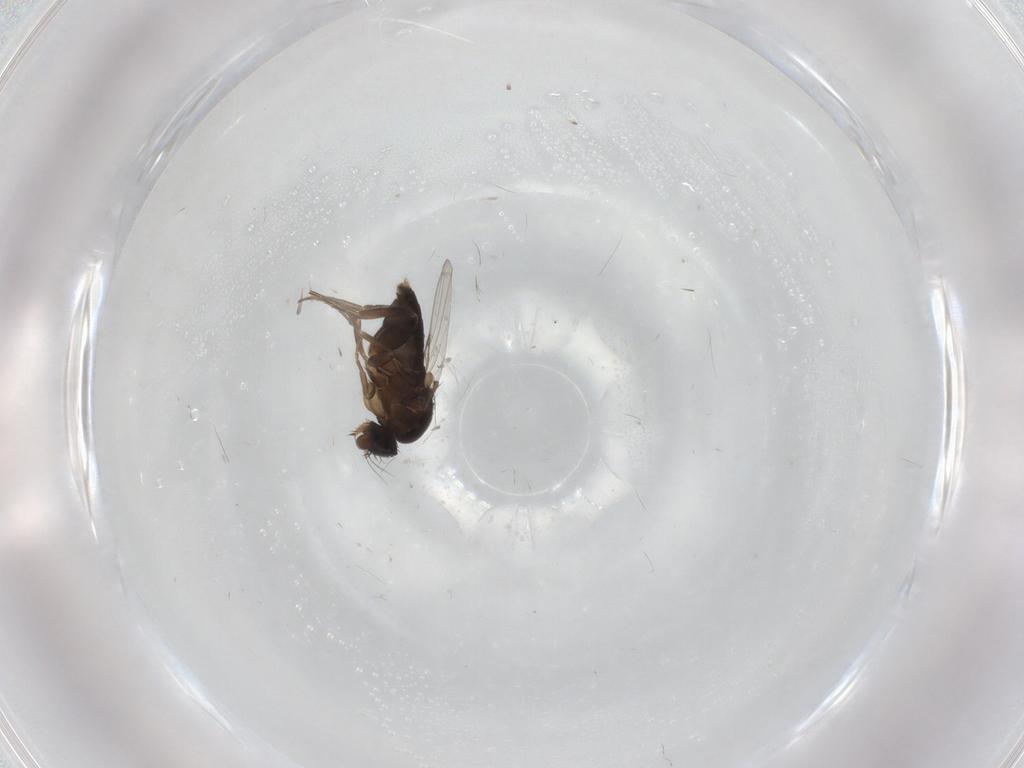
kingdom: Animalia
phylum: Arthropoda
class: Insecta
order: Diptera
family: Phoridae
